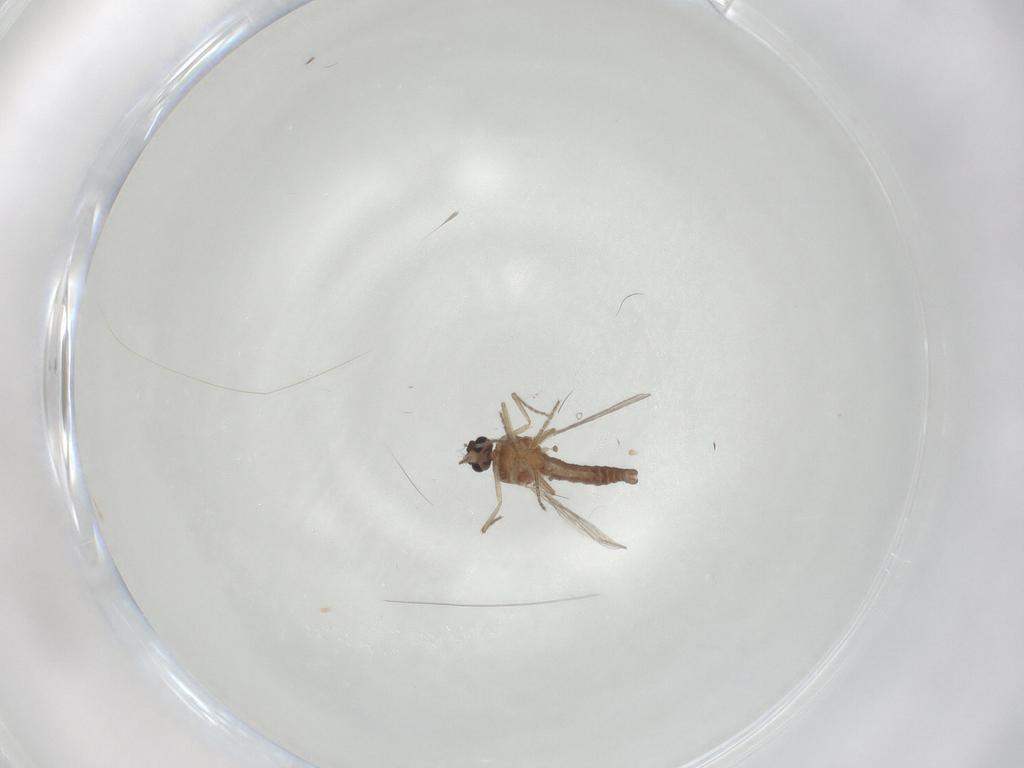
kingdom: Animalia
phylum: Arthropoda
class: Insecta
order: Diptera
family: Ceratopogonidae
